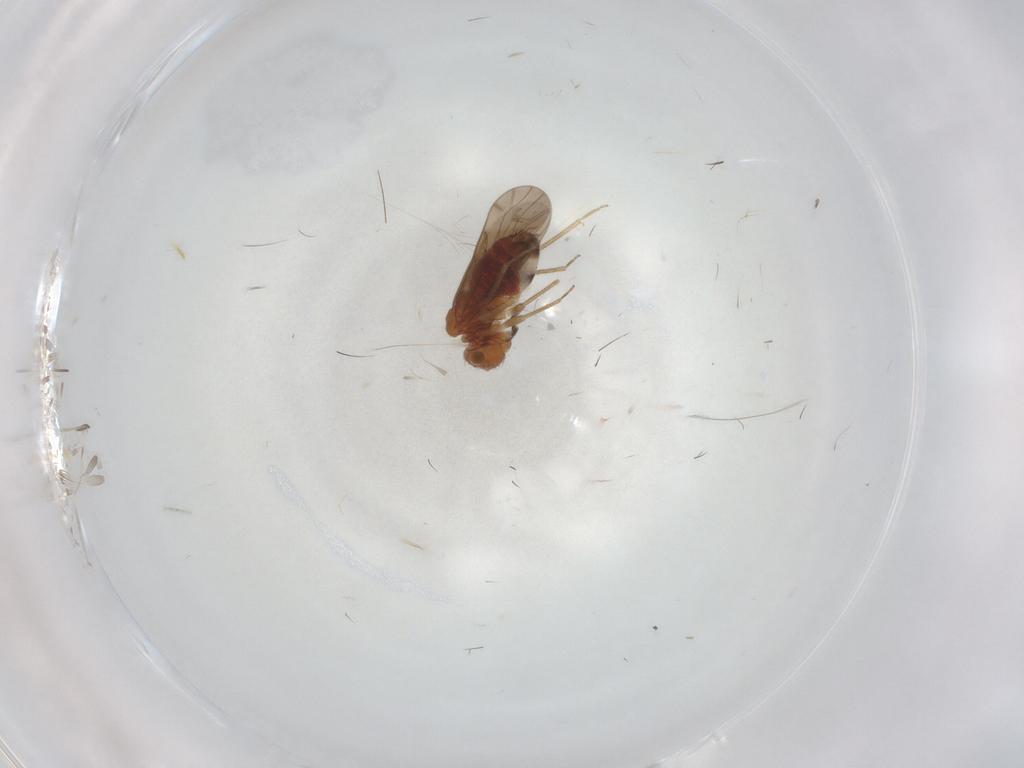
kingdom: Animalia
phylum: Arthropoda
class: Insecta
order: Psocodea
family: Ectopsocidae
